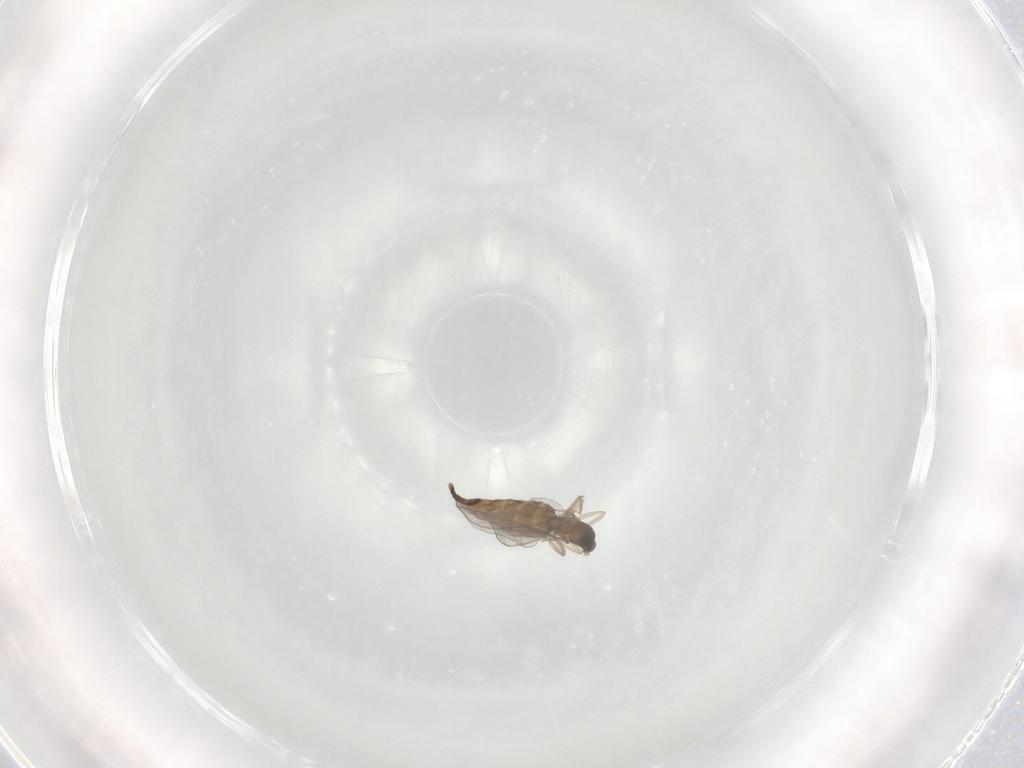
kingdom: Animalia
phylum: Arthropoda
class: Insecta
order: Diptera
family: Cecidomyiidae
